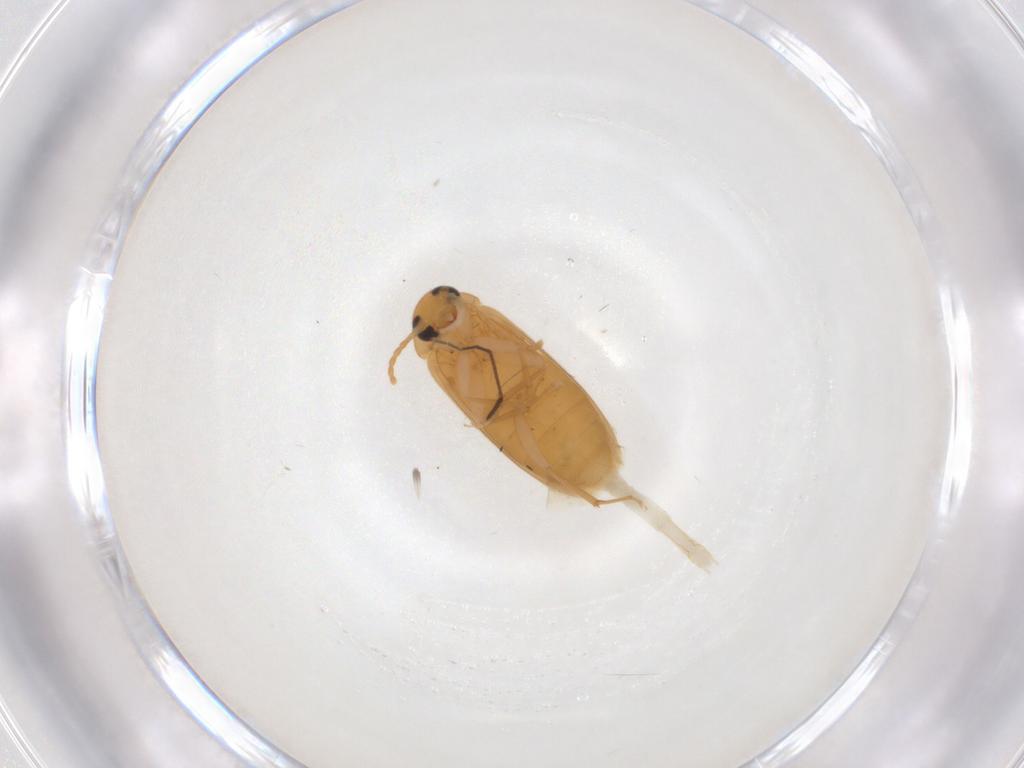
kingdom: Animalia
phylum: Arthropoda
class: Insecta
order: Coleoptera
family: Scraptiidae
